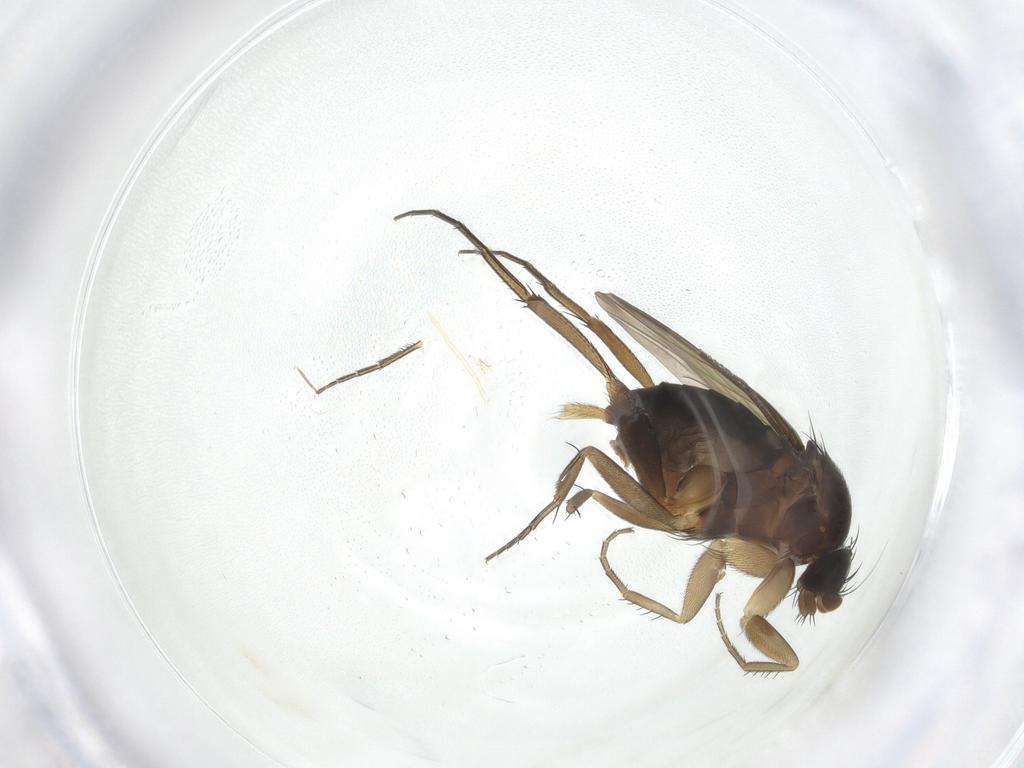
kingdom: Animalia
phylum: Arthropoda
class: Insecta
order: Diptera
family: Phoridae
